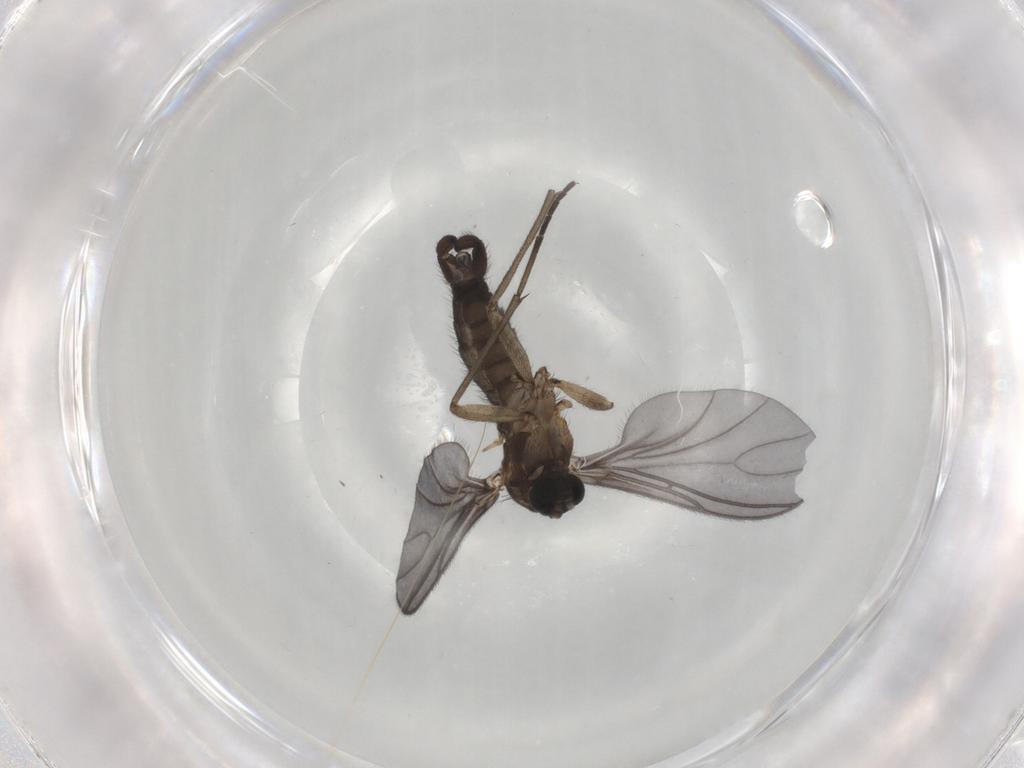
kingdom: Animalia
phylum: Arthropoda
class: Insecta
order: Diptera
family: Sciaridae
